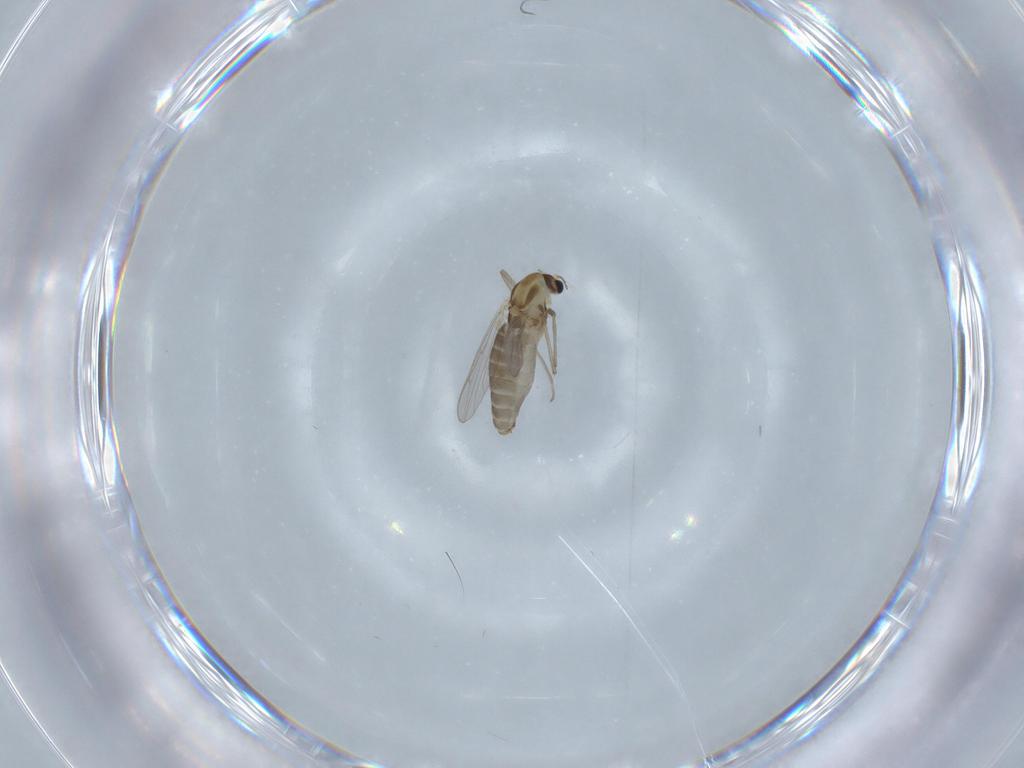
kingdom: Animalia
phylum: Arthropoda
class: Insecta
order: Diptera
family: Chironomidae
